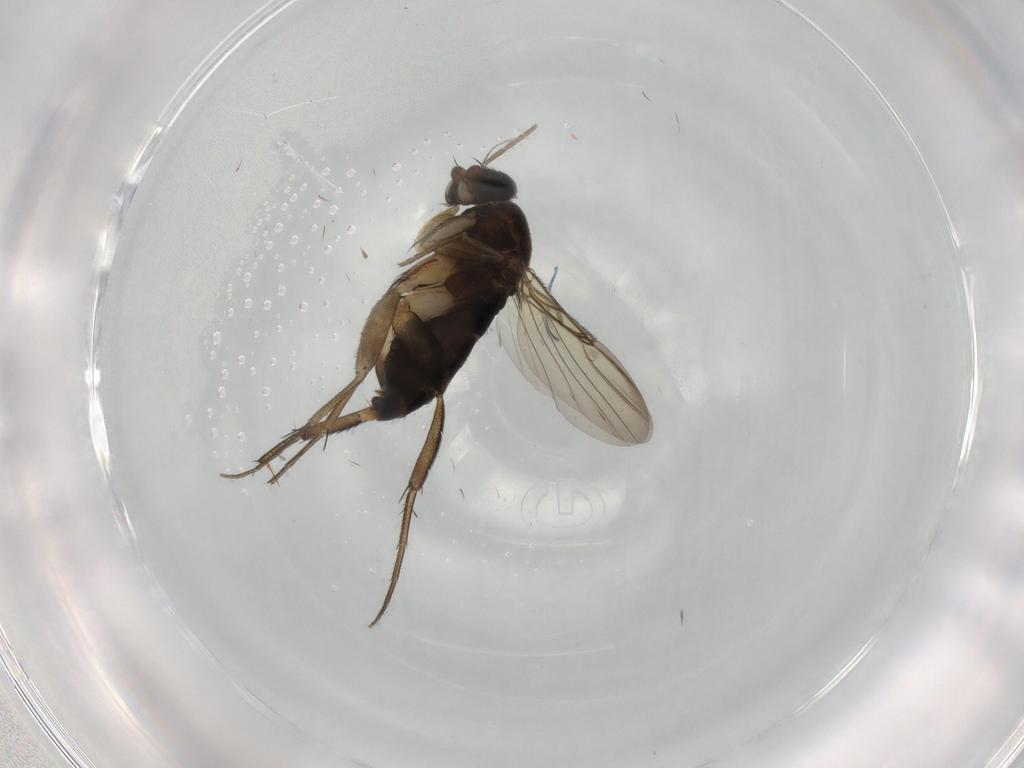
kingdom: Animalia
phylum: Arthropoda
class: Insecta
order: Diptera
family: Phoridae
